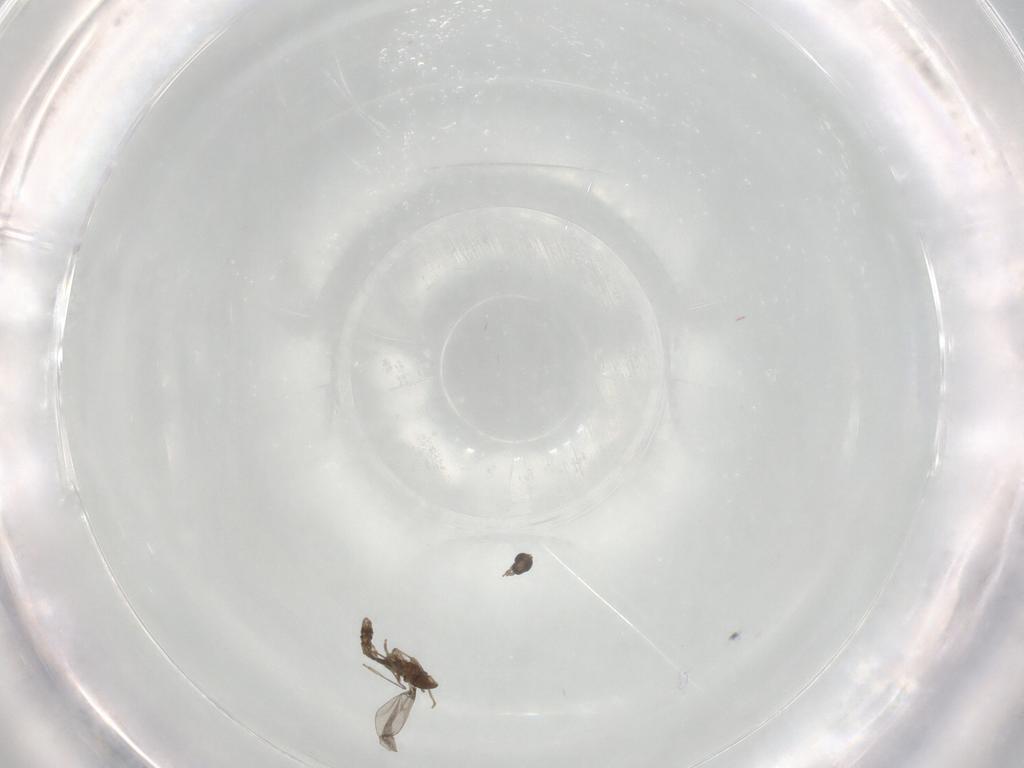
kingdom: Animalia
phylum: Arthropoda
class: Insecta
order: Diptera
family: Cecidomyiidae
